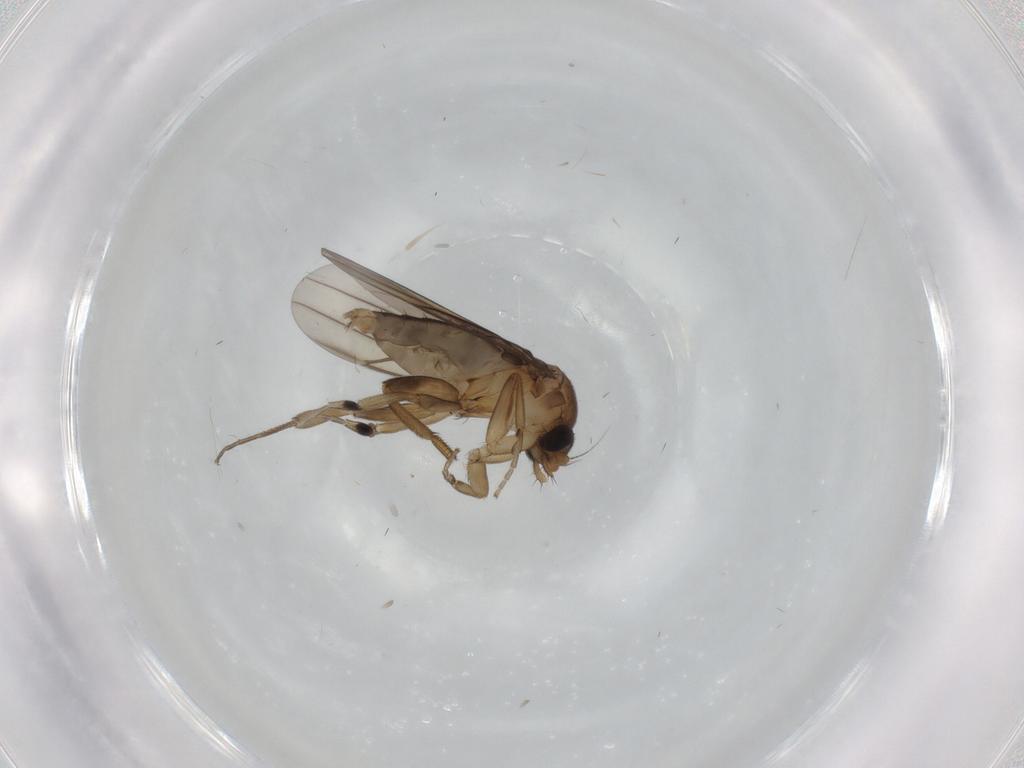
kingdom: Animalia
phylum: Arthropoda
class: Insecta
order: Diptera
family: Phoridae
